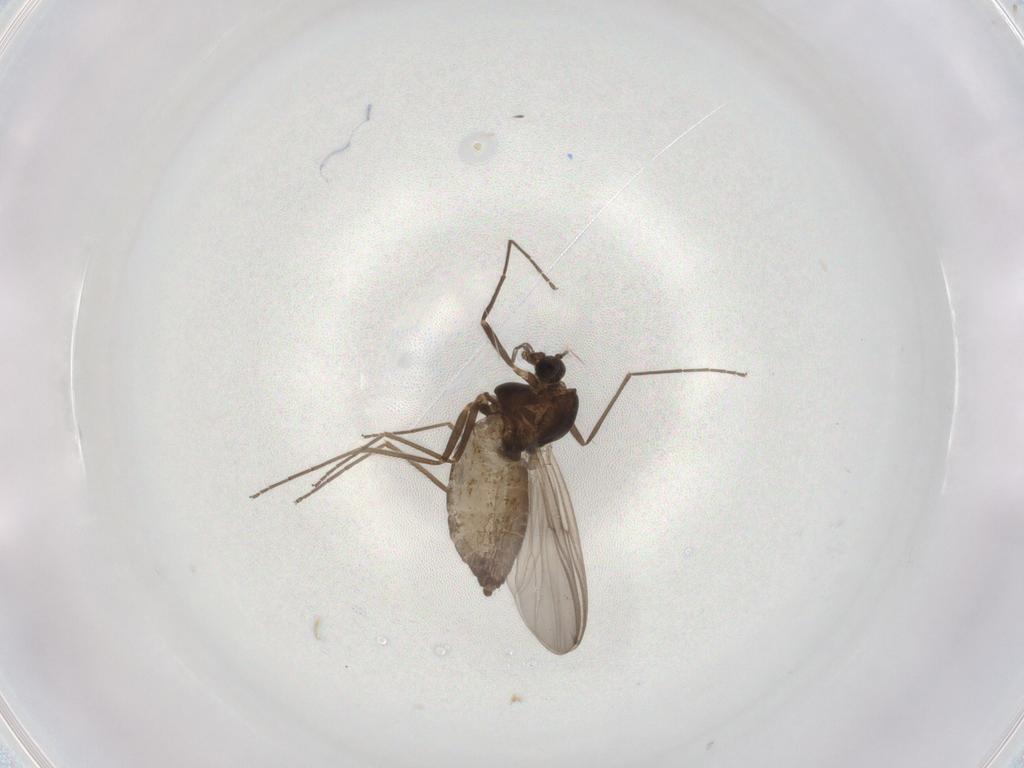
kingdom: Animalia
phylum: Arthropoda
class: Insecta
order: Diptera
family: Chironomidae
